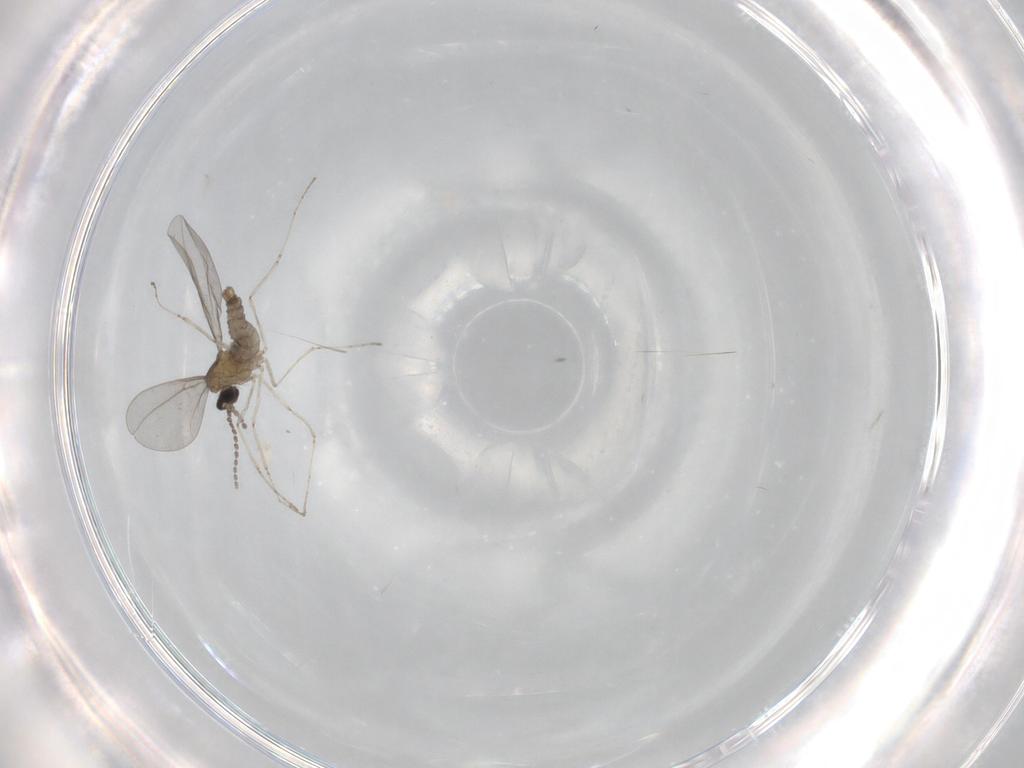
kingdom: Animalia
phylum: Arthropoda
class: Insecta
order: Diptera
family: Cecidomyiidae
